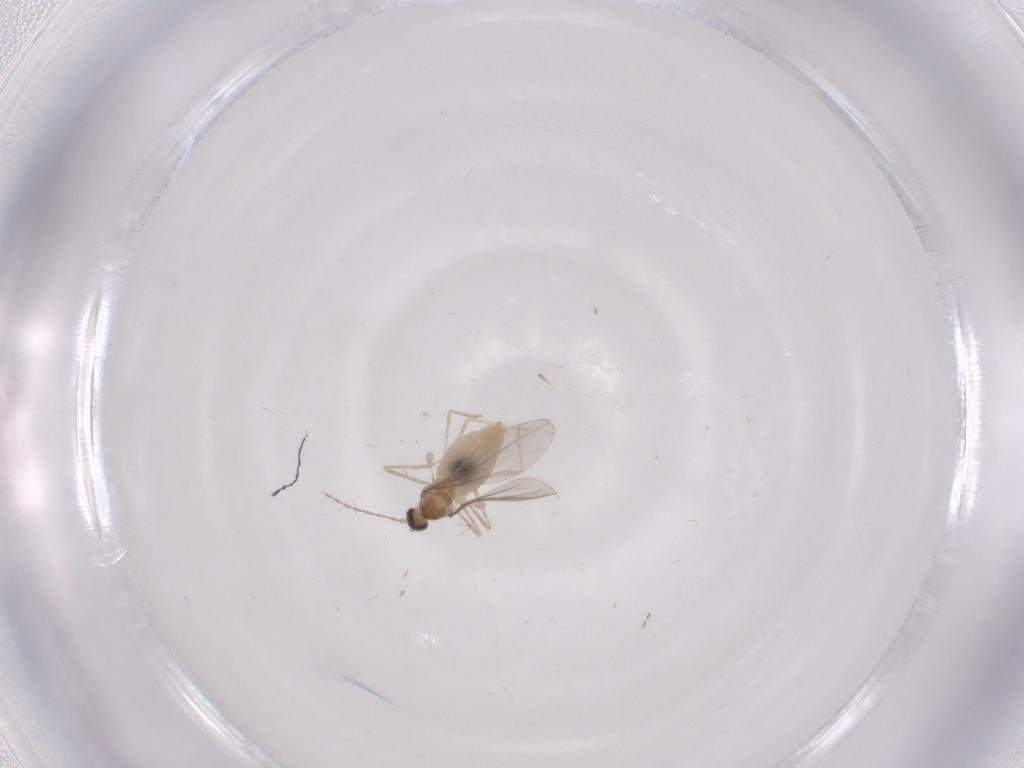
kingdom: Animalia
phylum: Arthropoda
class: Insecta
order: Diptera
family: Cecidomyiidae
